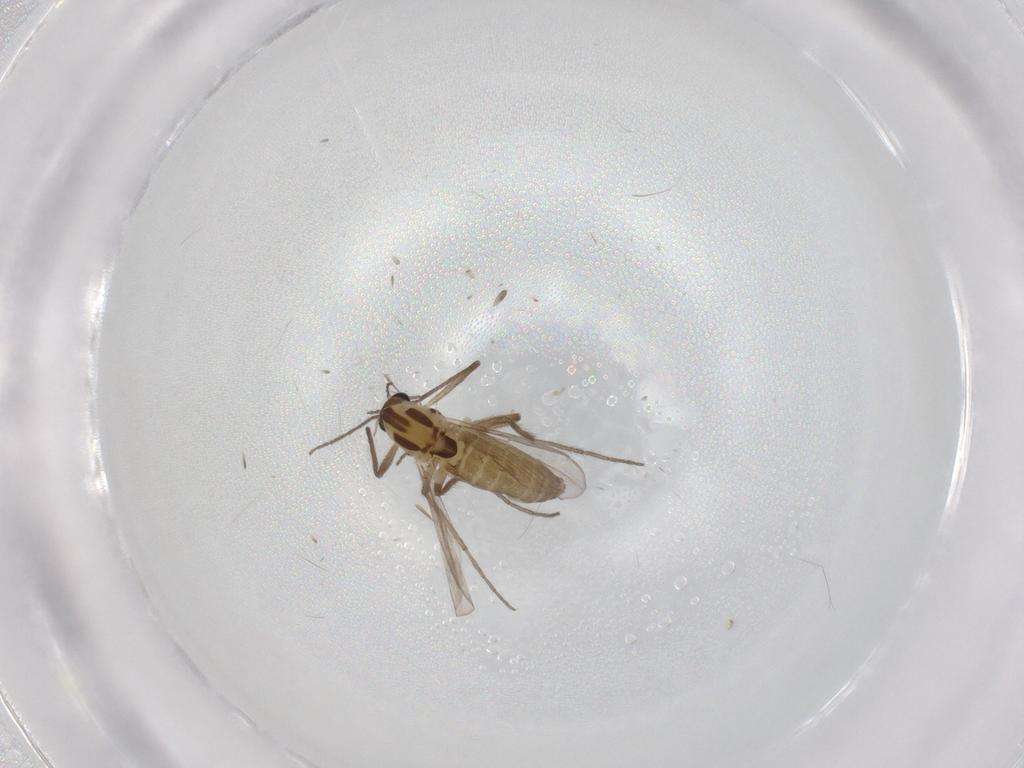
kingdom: Animalia
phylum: Arthropoda
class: Insecta
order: Diptera
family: Chironomidae
